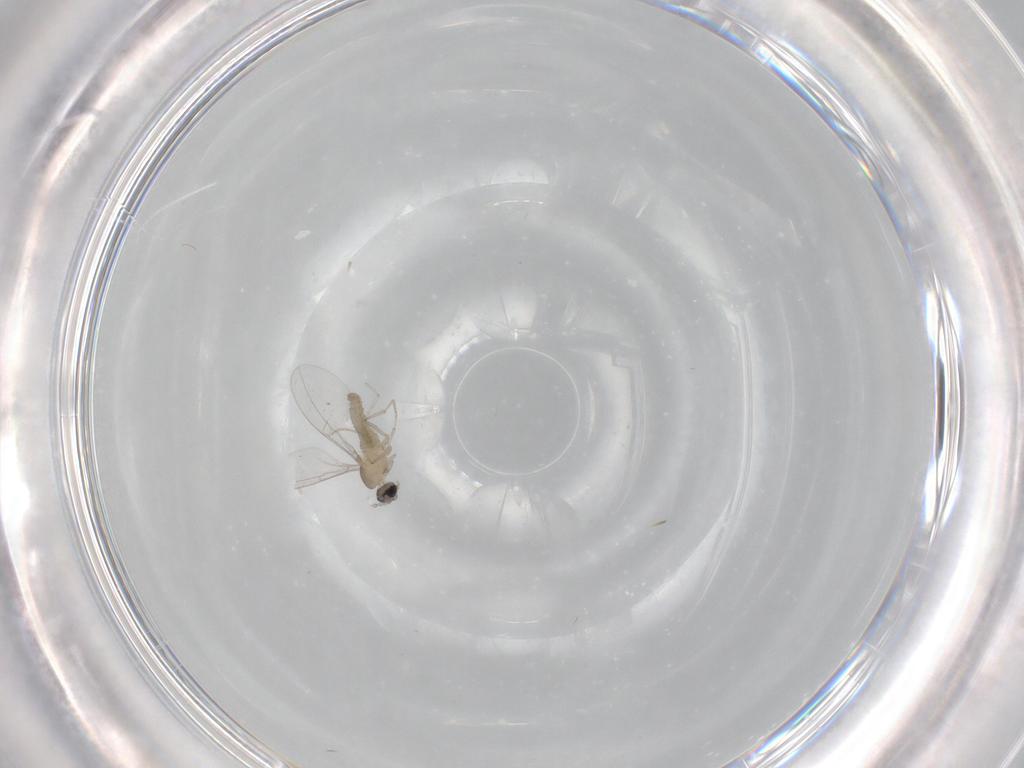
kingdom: Animalia
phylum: Arthropoda
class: Insecta
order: Diptera
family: Cecidomyiidae
